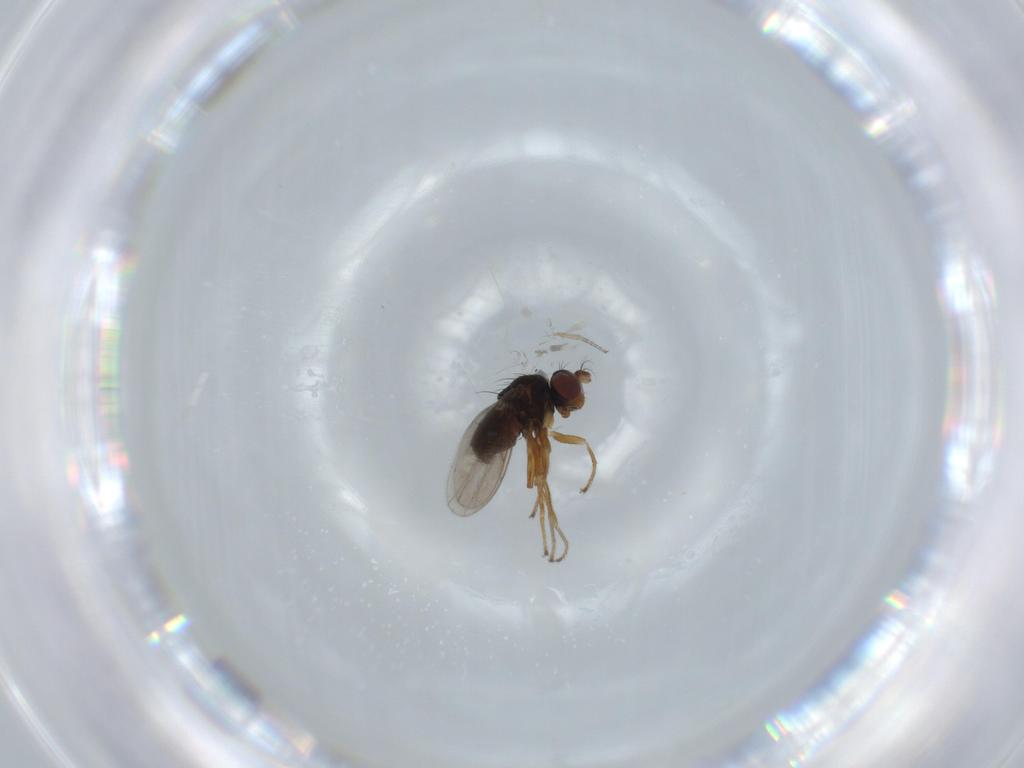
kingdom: Animalia
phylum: Arthropoda
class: Insecta
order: Diptera
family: Ephydridae
